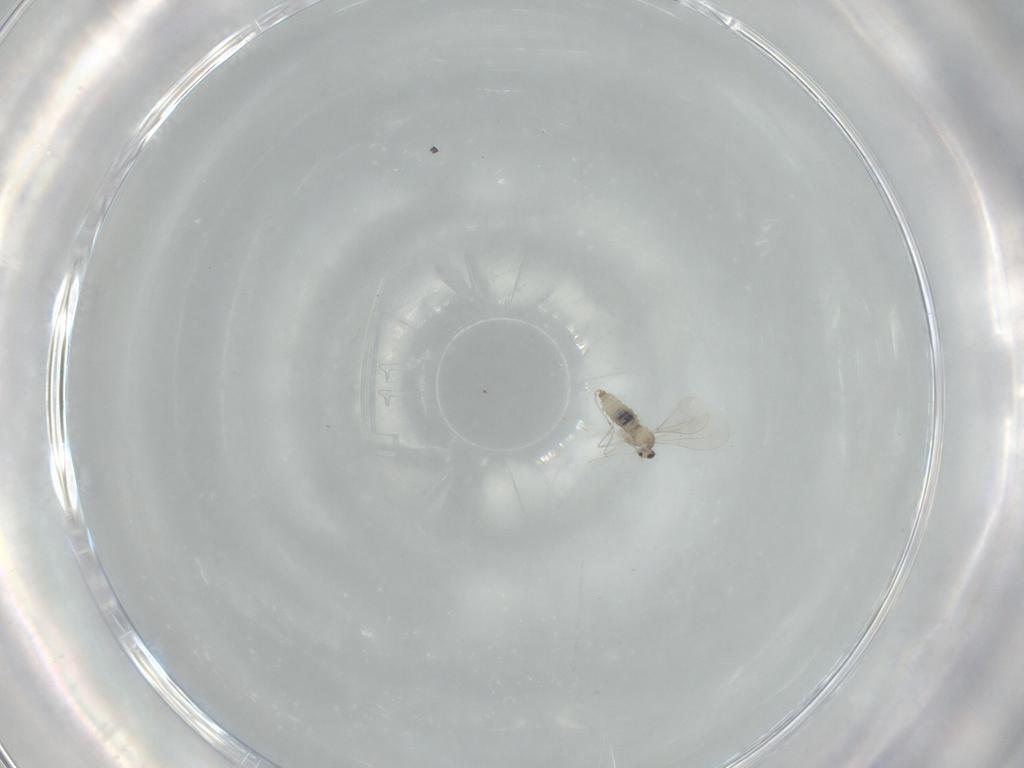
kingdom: Animalia
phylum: Arthropoda
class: Insecta
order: Diptera
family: Cecidomyiidae
